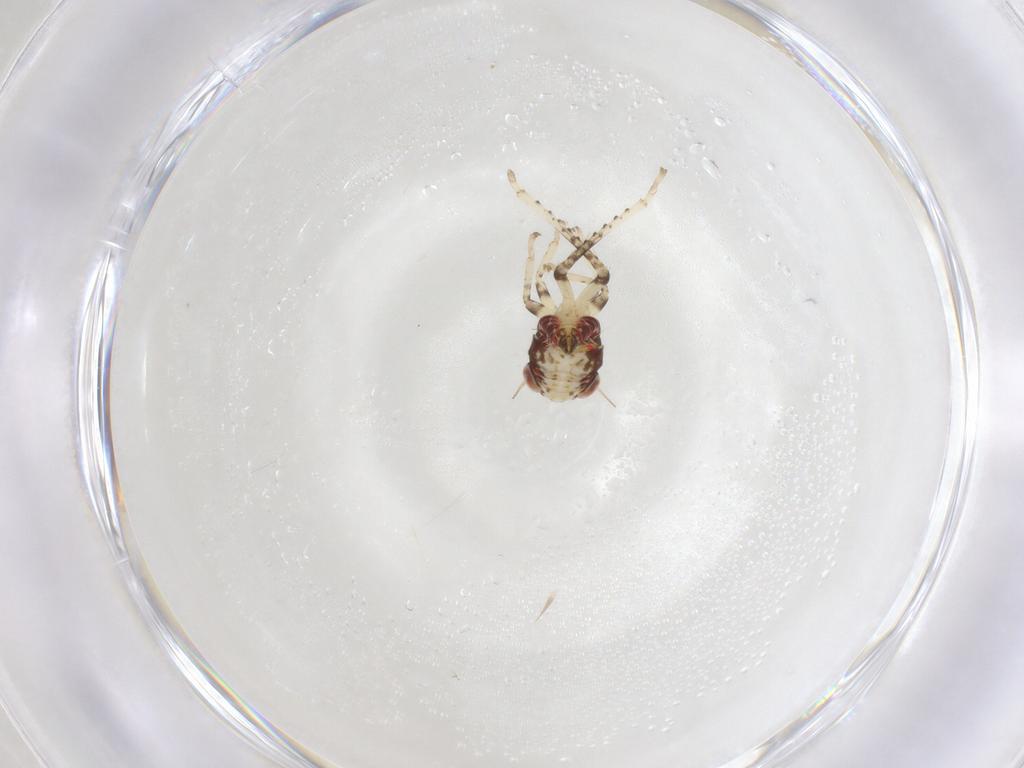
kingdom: Animalia
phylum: Arthropoda
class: Insecta
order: Hemiptera
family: Cicadellidae
